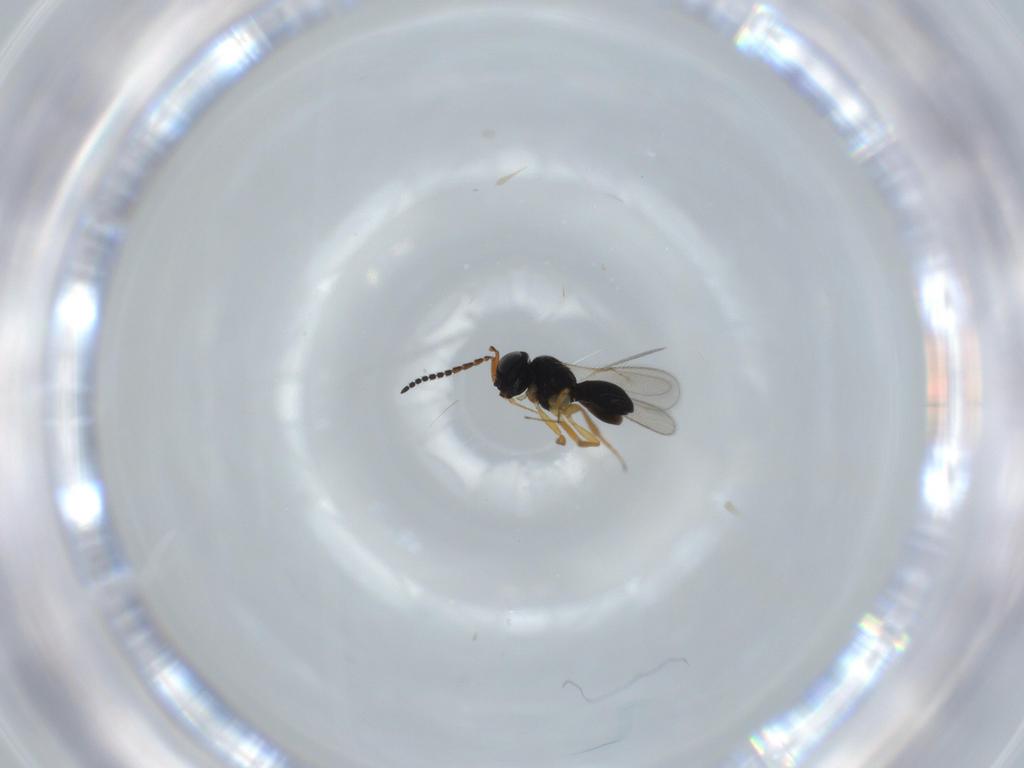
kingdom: Animalia
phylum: Arthropoda
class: Insecta
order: Hymenoptera
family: Scelionidae
